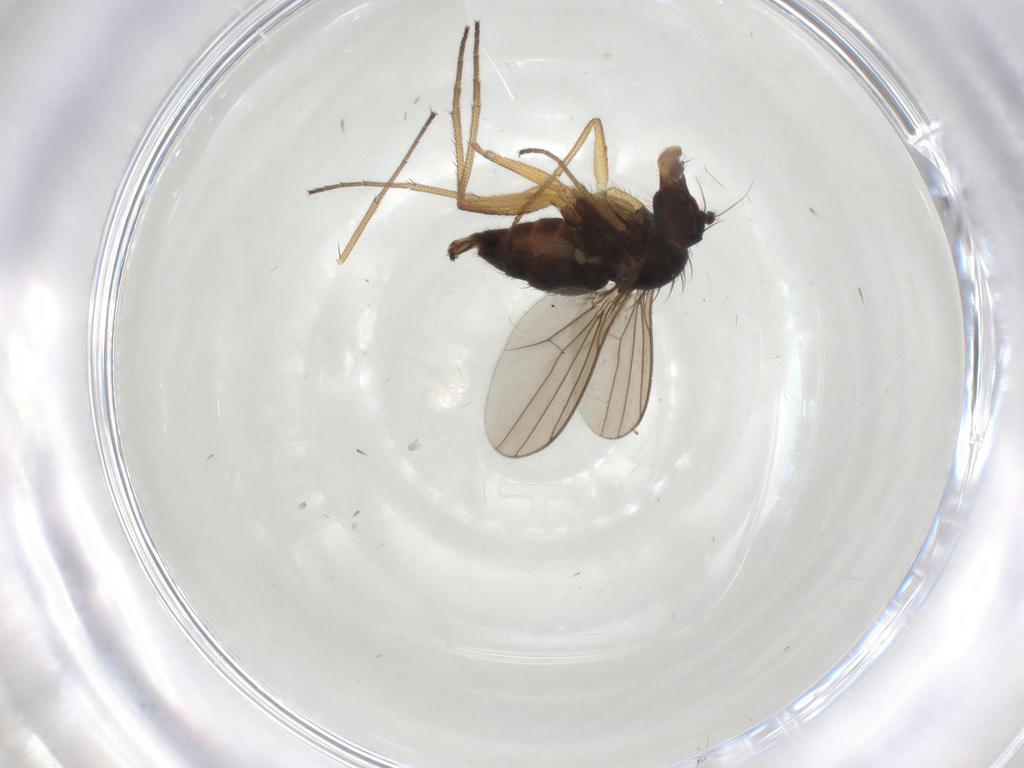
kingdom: Animalia
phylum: Arthropoda
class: Insecta
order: Diptera
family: Dolichopodidae
